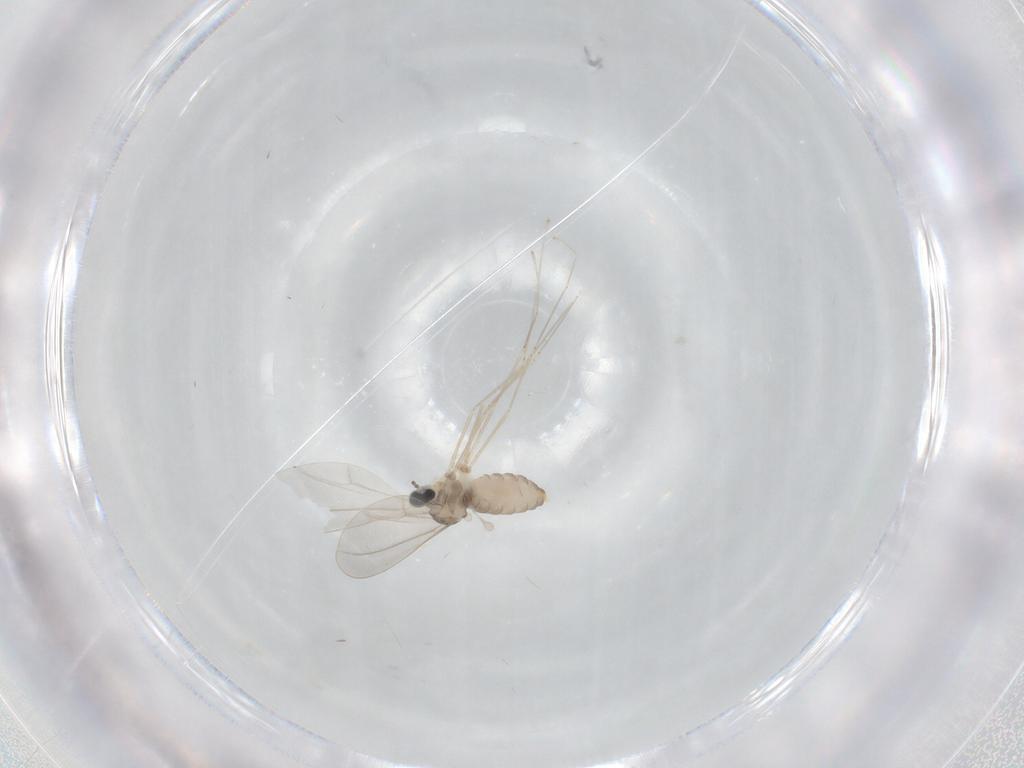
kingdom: Animalia
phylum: Arthropoda
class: Insecta
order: Diptera
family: Cecidomyiidae
